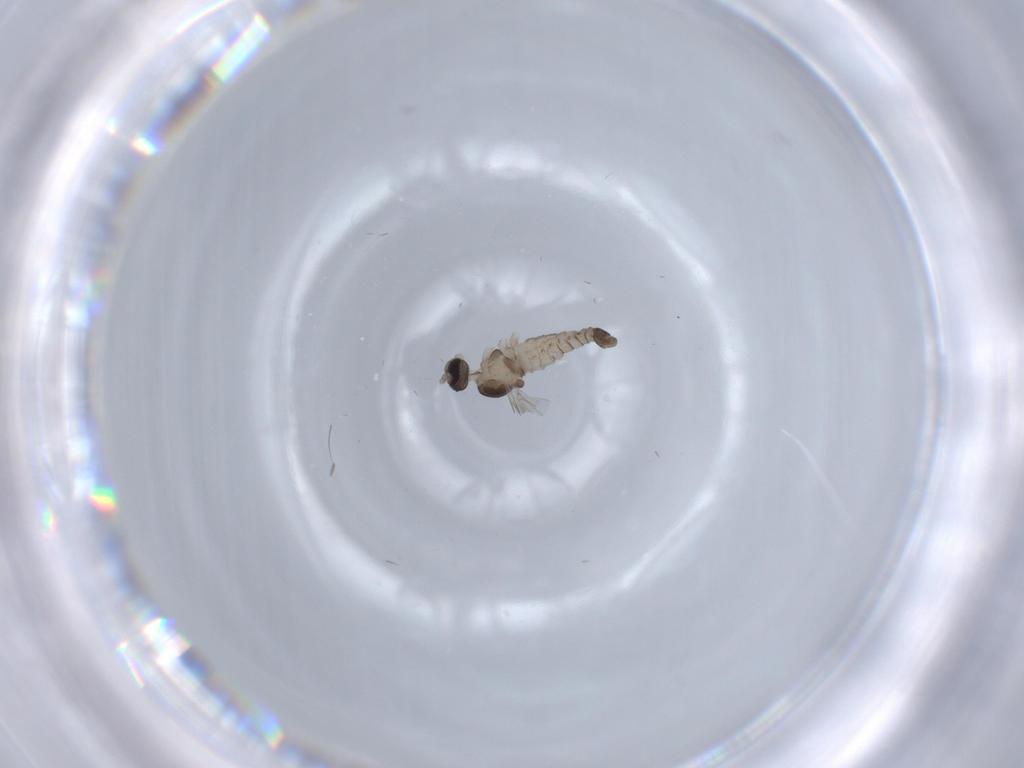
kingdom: Animalia
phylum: Arthropoda
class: Insecta
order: Diptera
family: Cecidomyiidae
